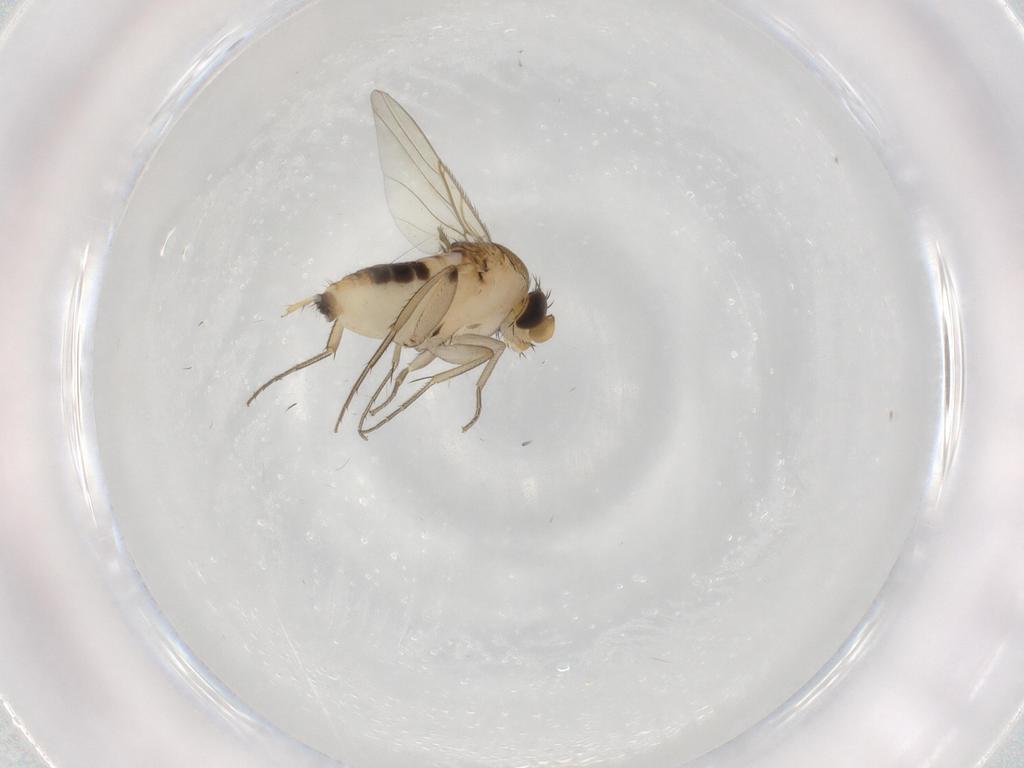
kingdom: Animalia
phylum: Arthropoda
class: Insecta
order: Diptera
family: Phoridae
